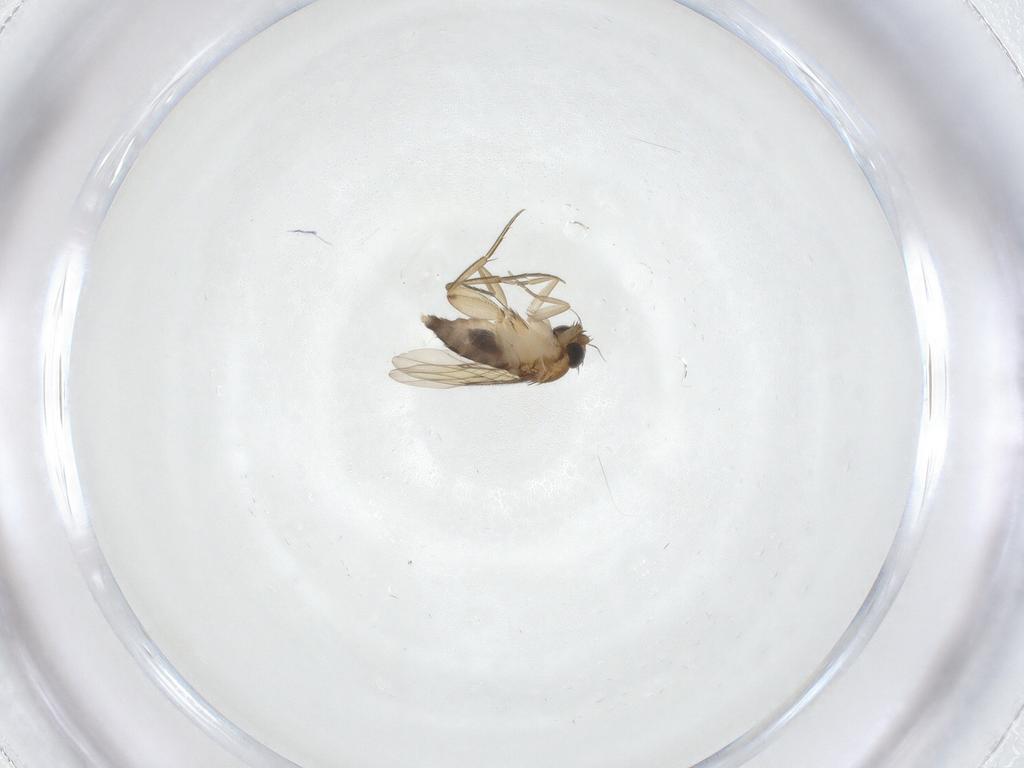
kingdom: Animalia
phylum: Arthropoda
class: Insecta
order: Diptera
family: Phoridae
